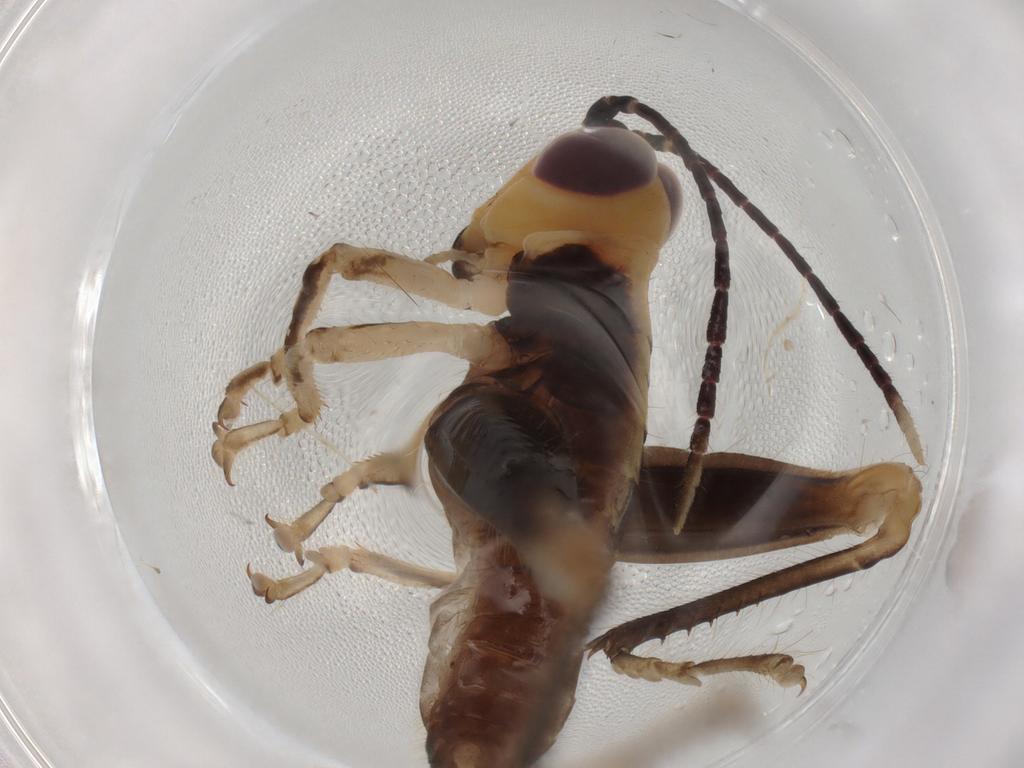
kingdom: Animalia
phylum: Arthropoda
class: Insecta
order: Orthoptera
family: Acrididae
